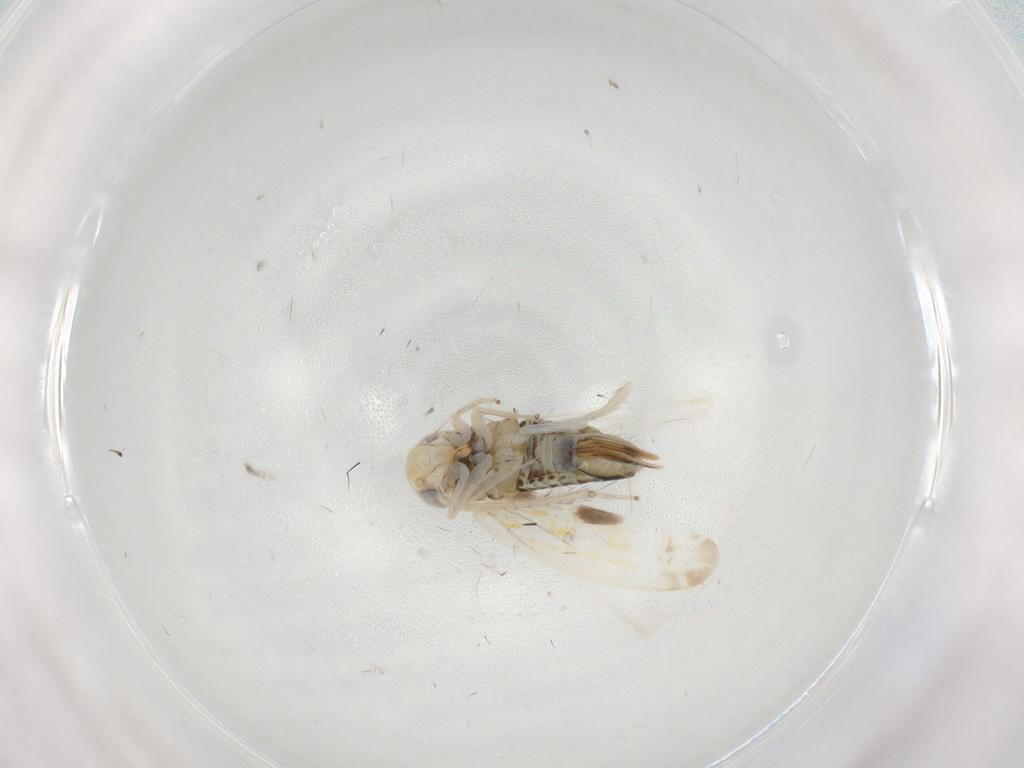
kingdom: Animalia
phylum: Arthropoda
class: Insecta
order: Hemiptera
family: Cicadellidae
